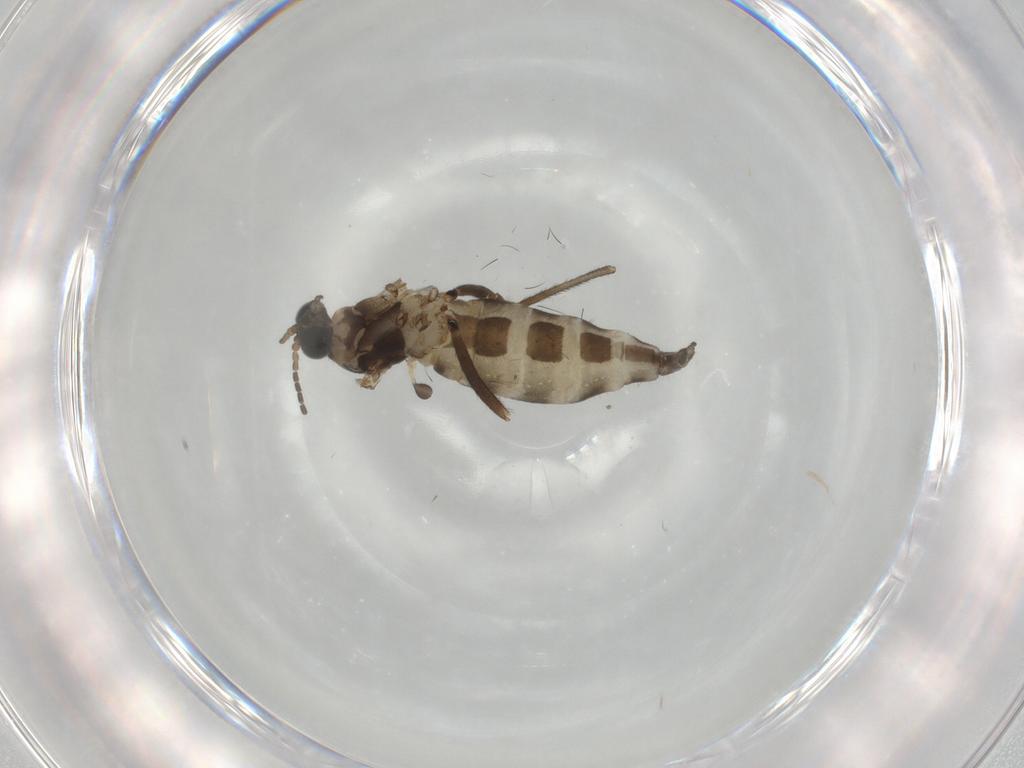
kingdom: Animalia
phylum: Arthropoda
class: Insecta
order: Diptera
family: Sciaridae
